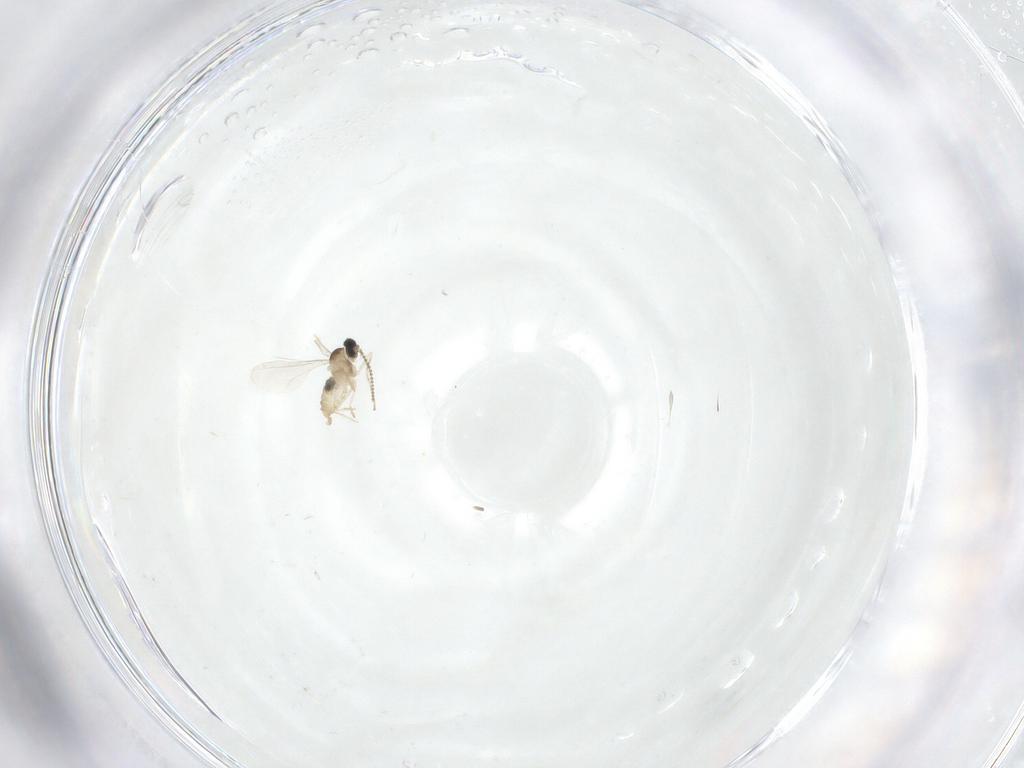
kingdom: Animalia
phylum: Arthropoda
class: Insecta
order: Diptera
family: Cecidomyiidae
